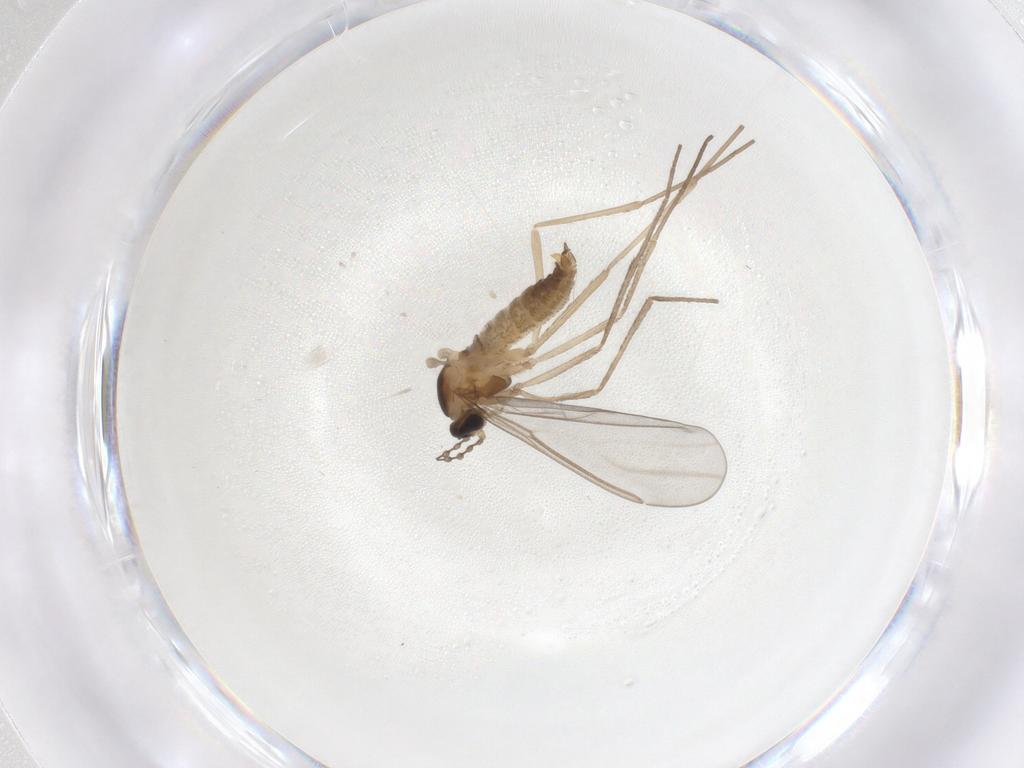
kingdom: Animalia
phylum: Arthropoda
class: Insecta
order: Diptera
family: Cecidomyiidae
